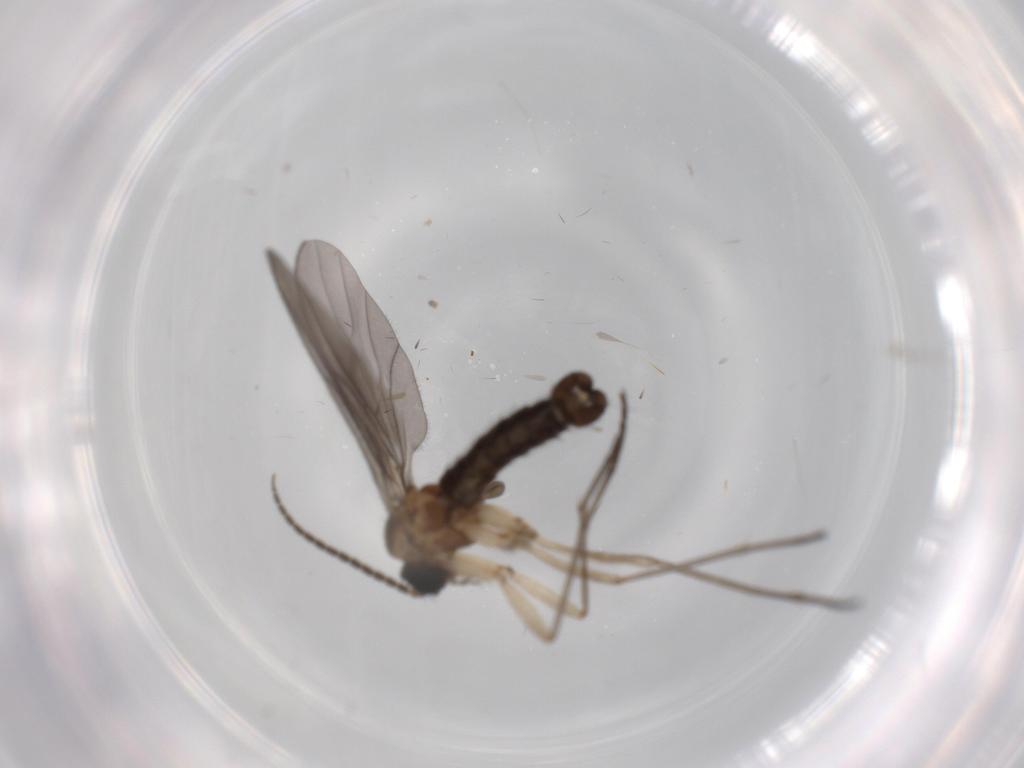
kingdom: Animalia
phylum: Arthropoda
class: Insecta
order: Diptera
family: Sciaridae
